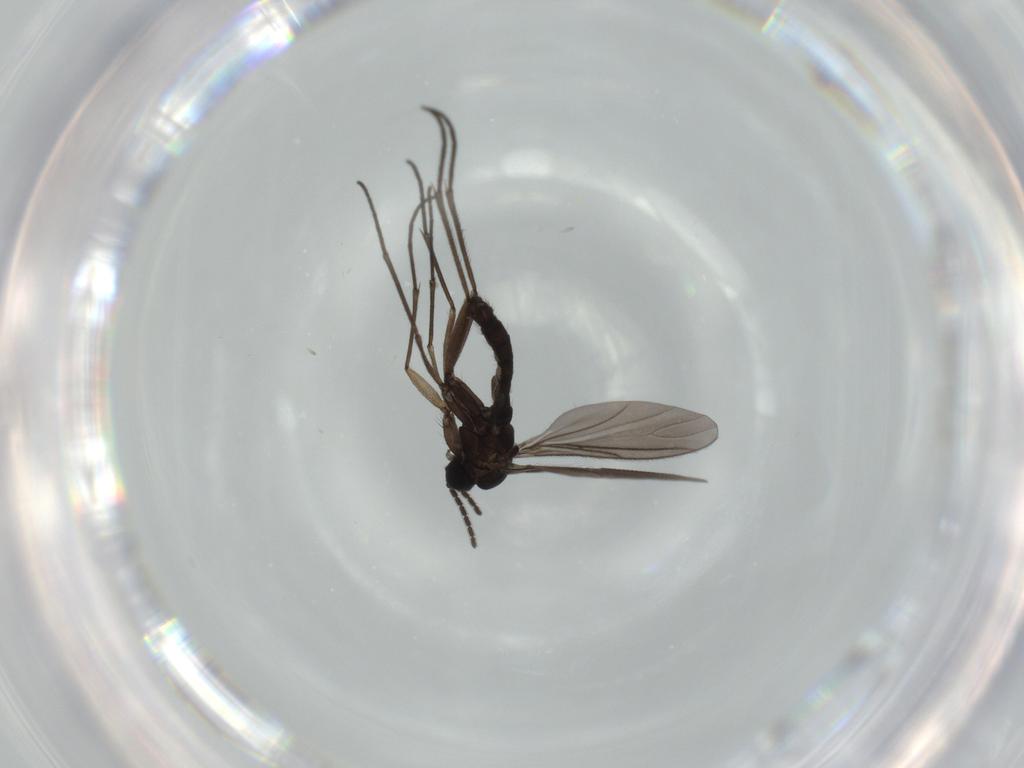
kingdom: Animalia
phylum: Arthropoda
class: Insecta
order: Diptera
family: Sciaridae
